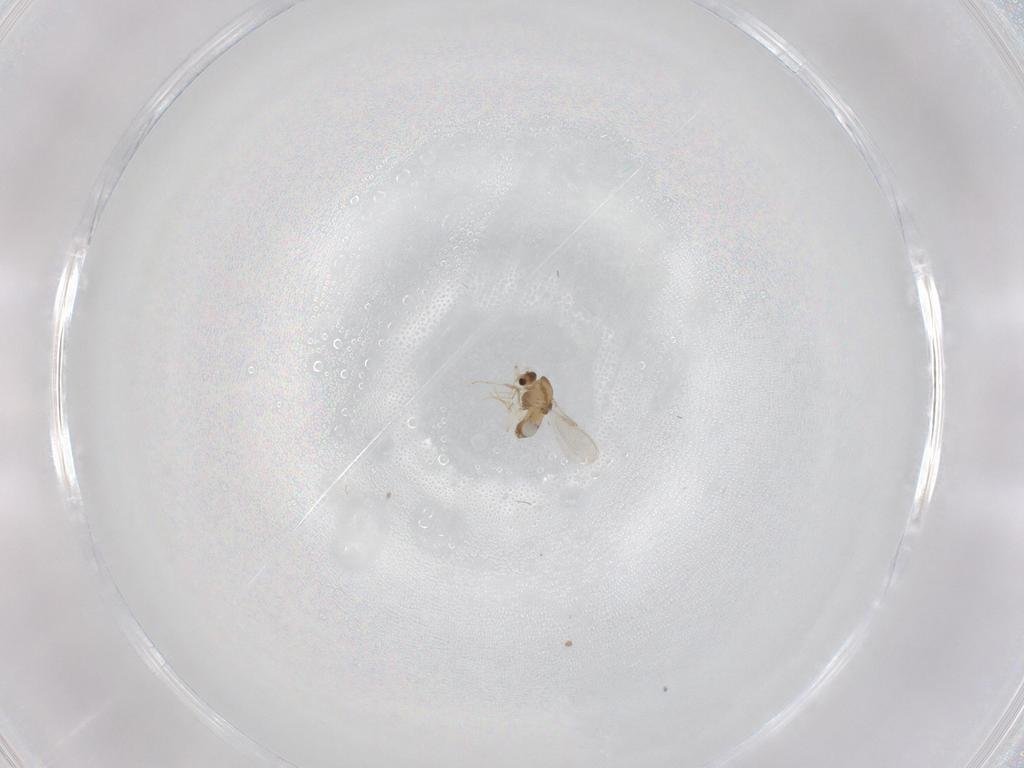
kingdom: Animalia
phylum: Arthropoda
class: Insecta
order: Diptera
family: Chironomidae
